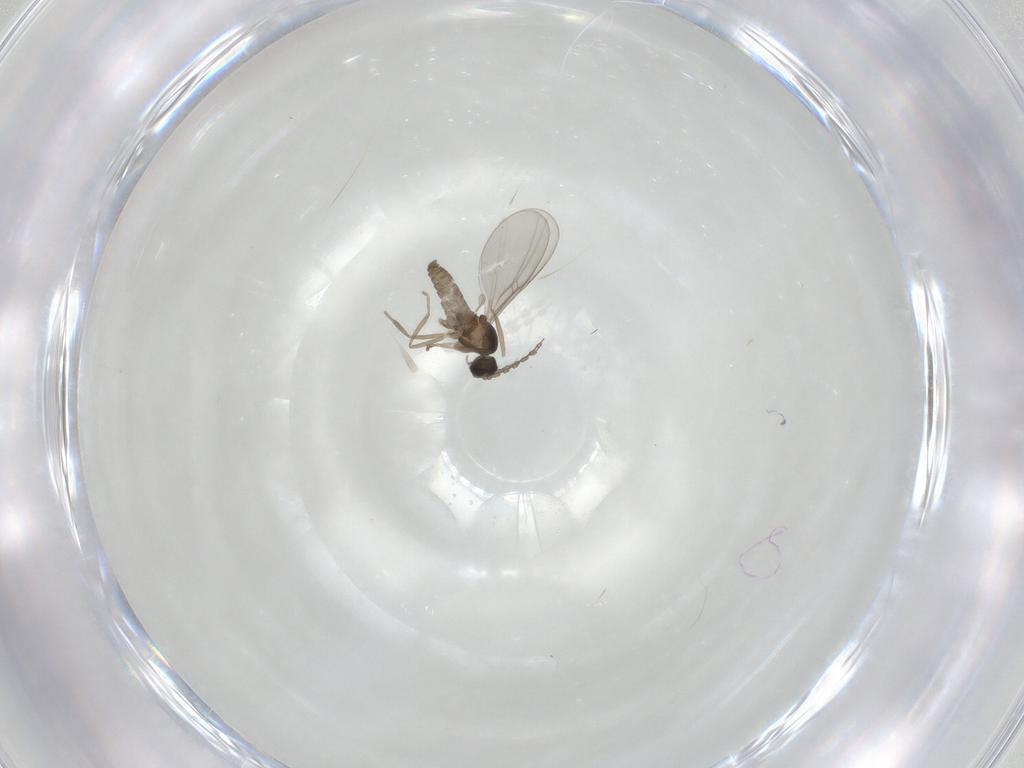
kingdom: Animalia
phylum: Arthropoda
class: Insecta
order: Diptera
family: Cecidomyiidae
